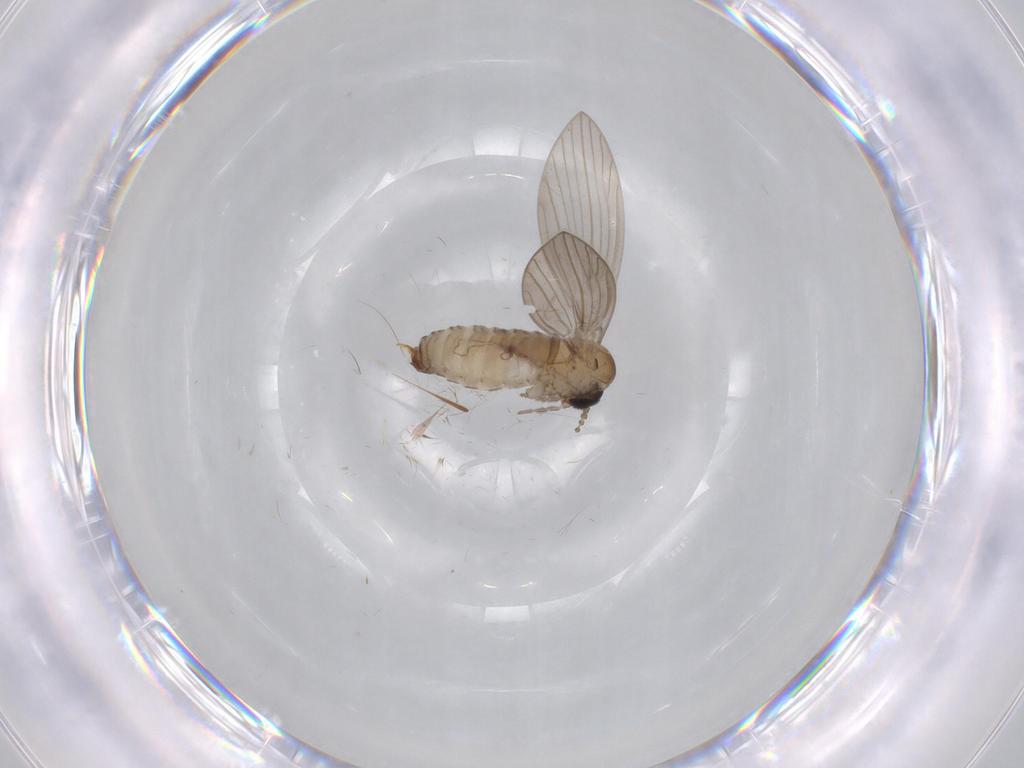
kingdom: Animalia
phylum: Arthropoda
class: Insecta
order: Diptera
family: Psychodidae
